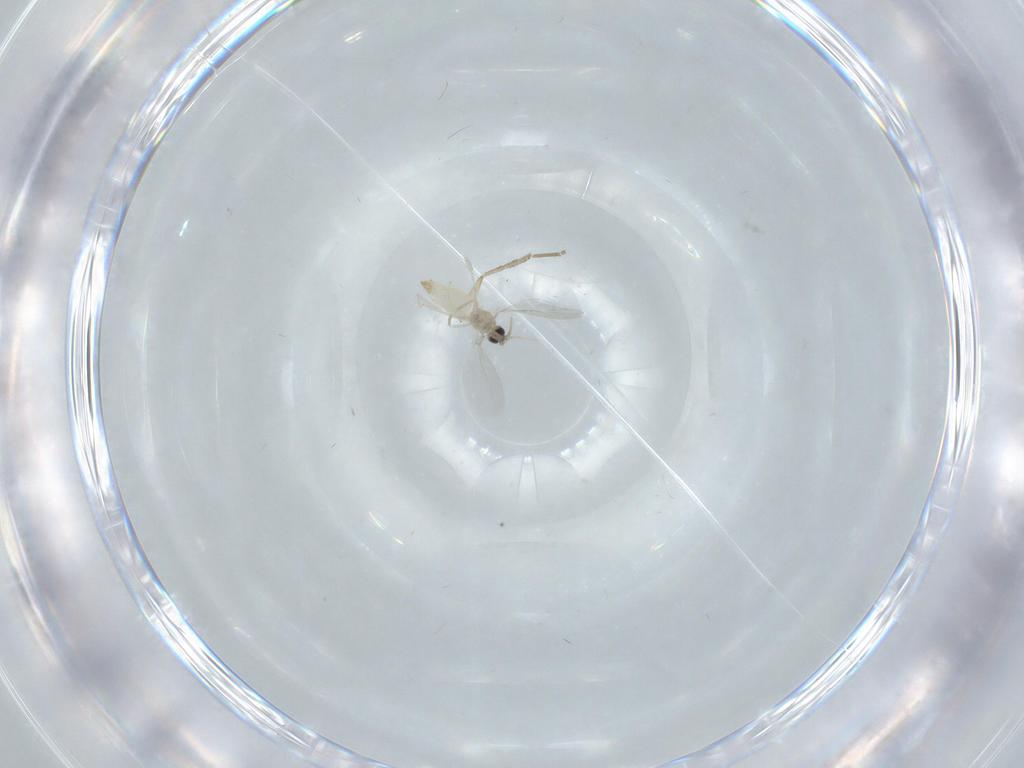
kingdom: Animalia
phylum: Arthropoda
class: Insecta
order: Diptera
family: Cecidomyiidae
